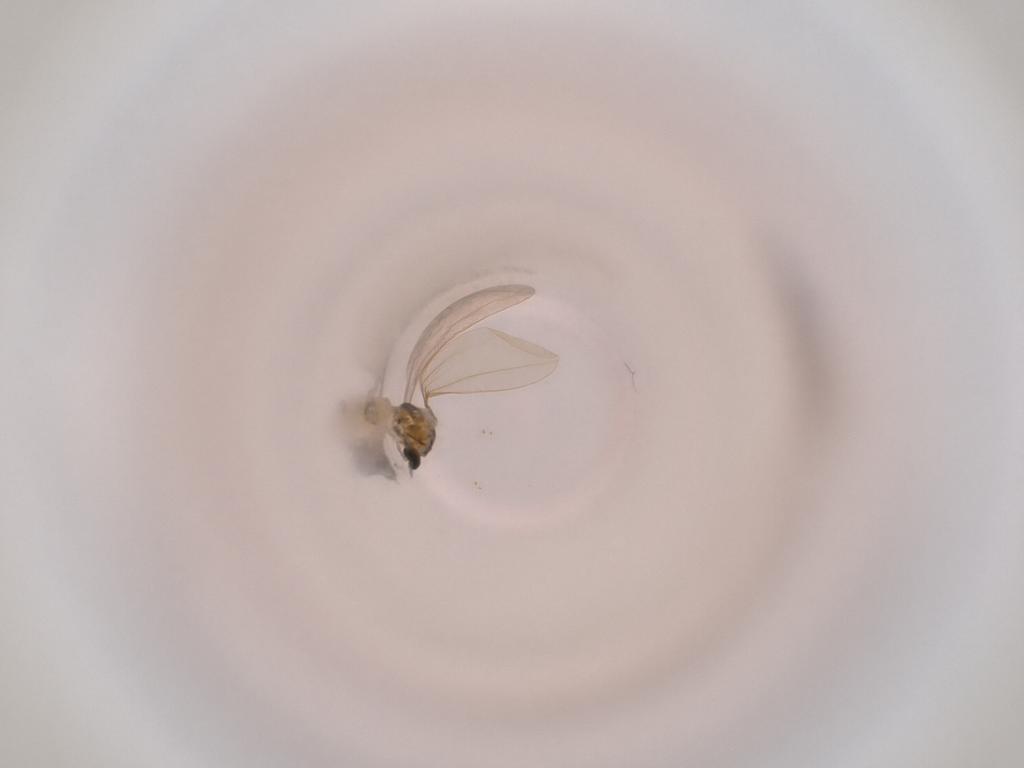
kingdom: Animalia
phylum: Arthropoda
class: Insecta
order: Diptera
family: Cecidomyiidae
